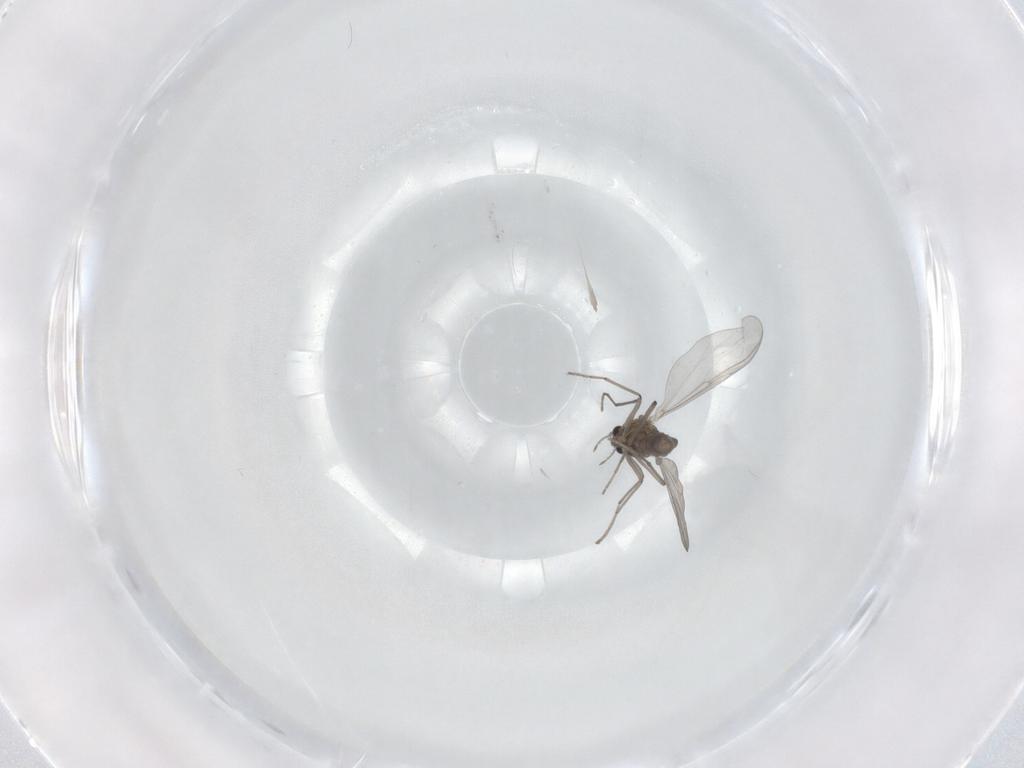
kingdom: Animalia
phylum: Arthropoda
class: Insecta
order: Diptera
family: Chironomidae
